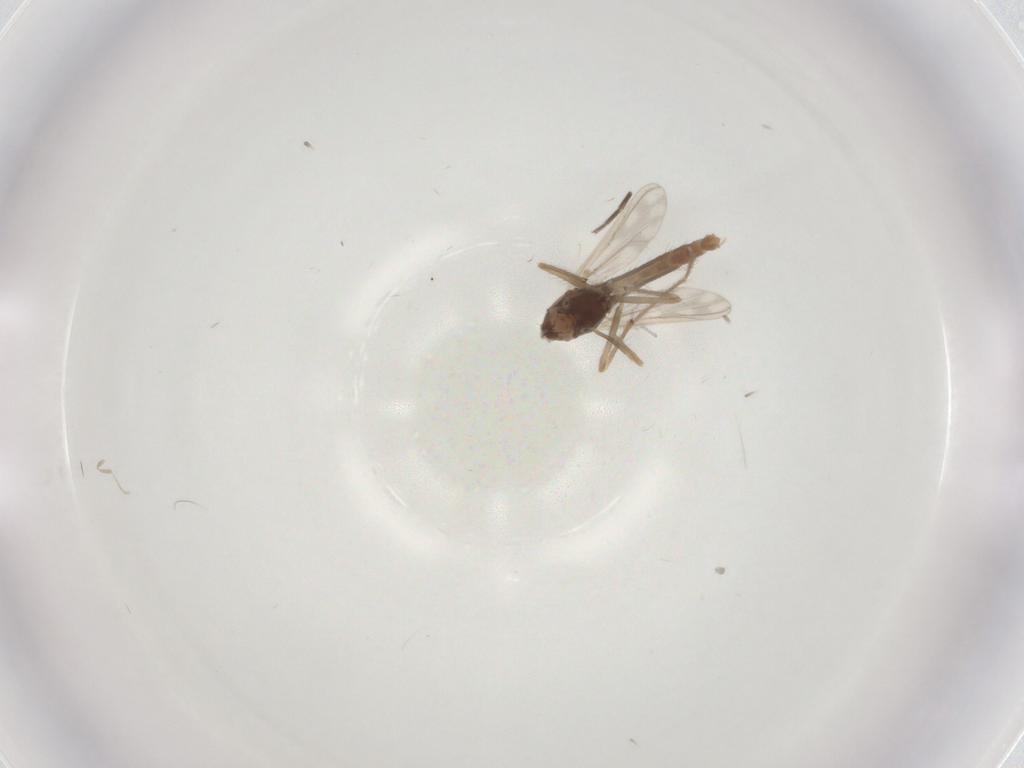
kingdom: Animalia
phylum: Arthropoda
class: Insecta
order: Diptera
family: Chironomidae
